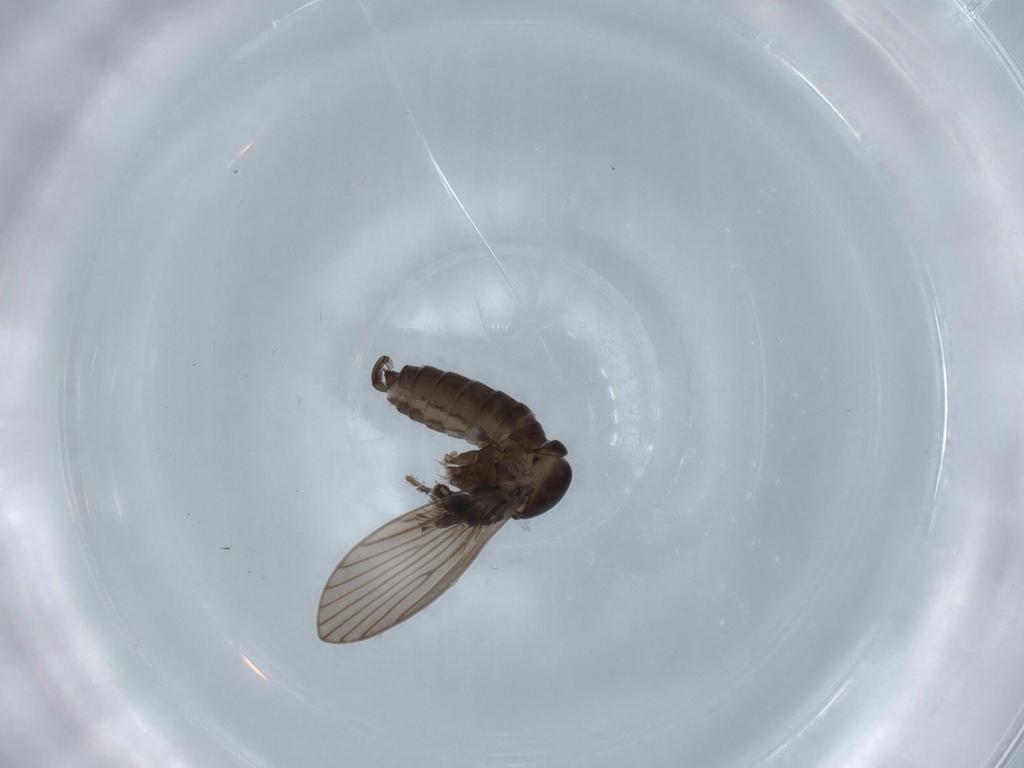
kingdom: Animalia
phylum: Arthropoda
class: Insecta
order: Diptera
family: Psychodidae
